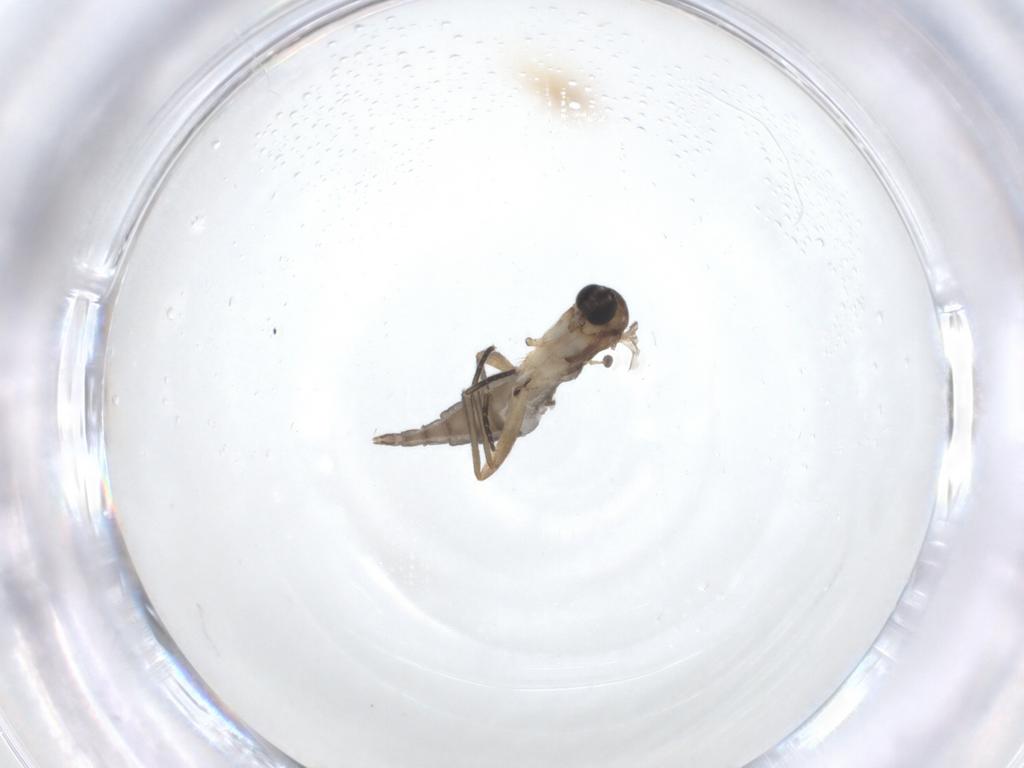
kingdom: Animalia
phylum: Arthropoda
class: Insecta
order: Diptera
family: Sciaridae
